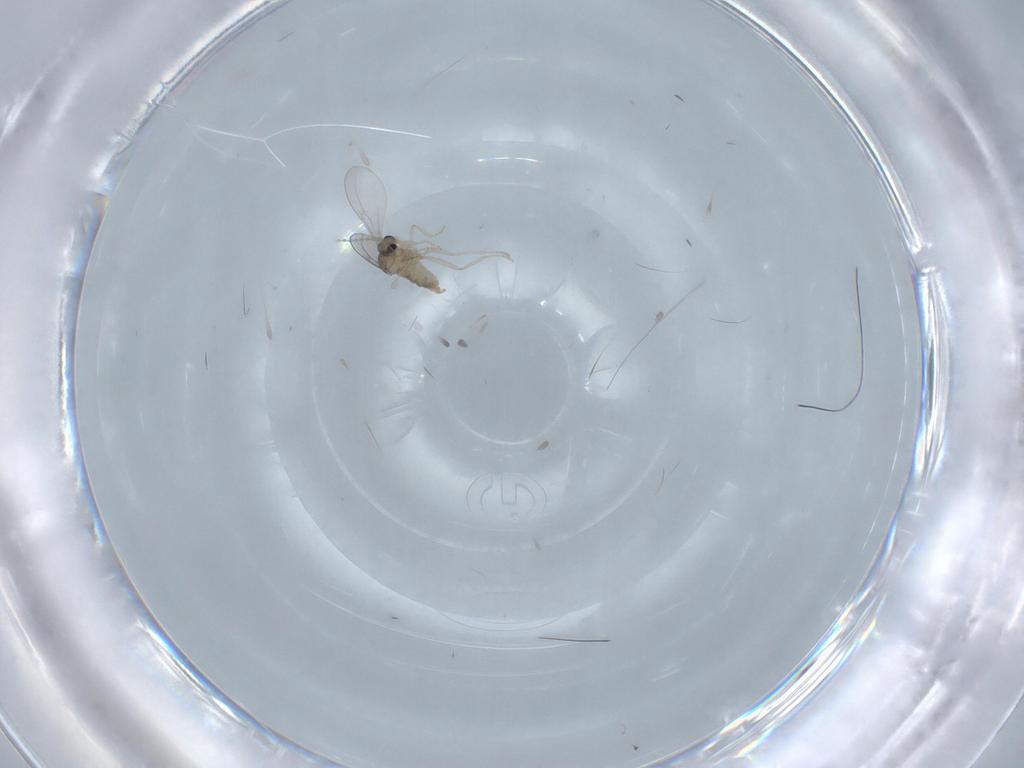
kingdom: Animalia
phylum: Arthropoda
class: Insecta
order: Diptera
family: Cecidomyiidae
